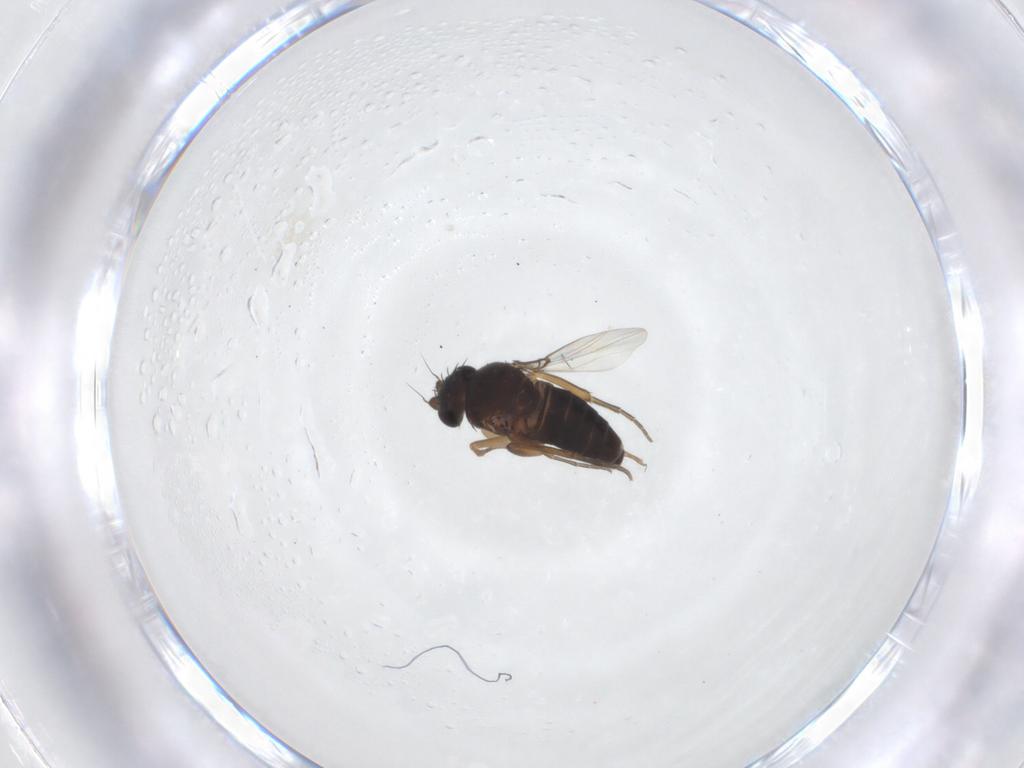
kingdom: Animalia
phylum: Arthropoda
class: Insecta
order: Diptera
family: Phoridae
